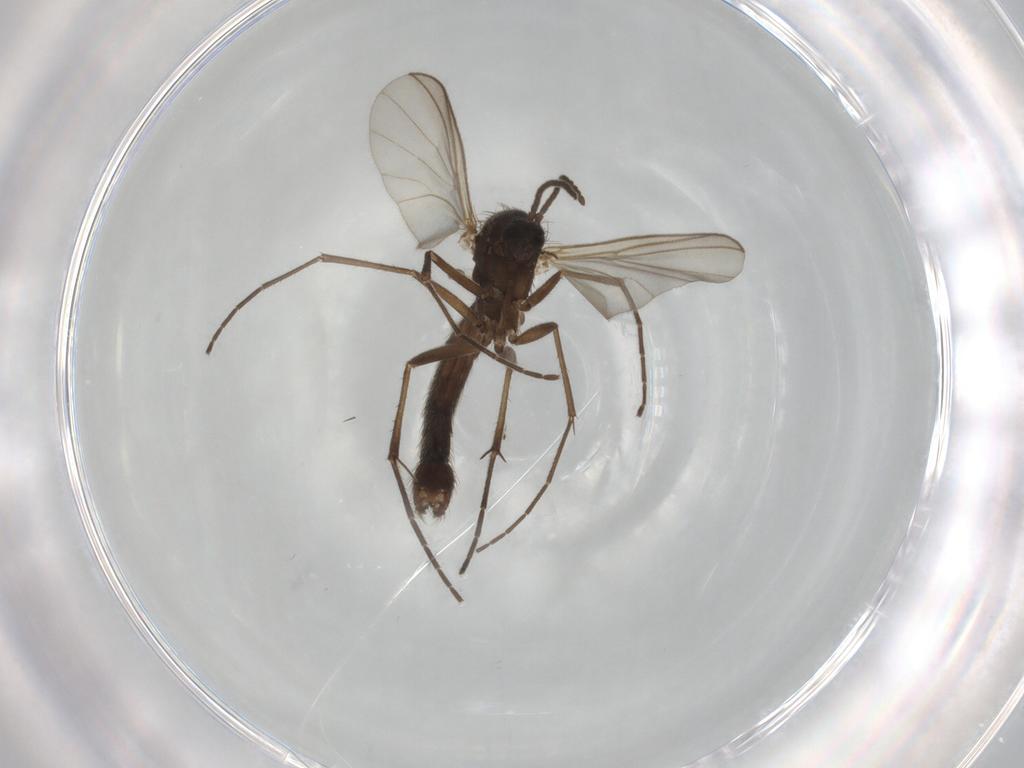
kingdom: Animalia
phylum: Arthropoda
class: Insecta
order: Diptera
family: Mycetophilidae
